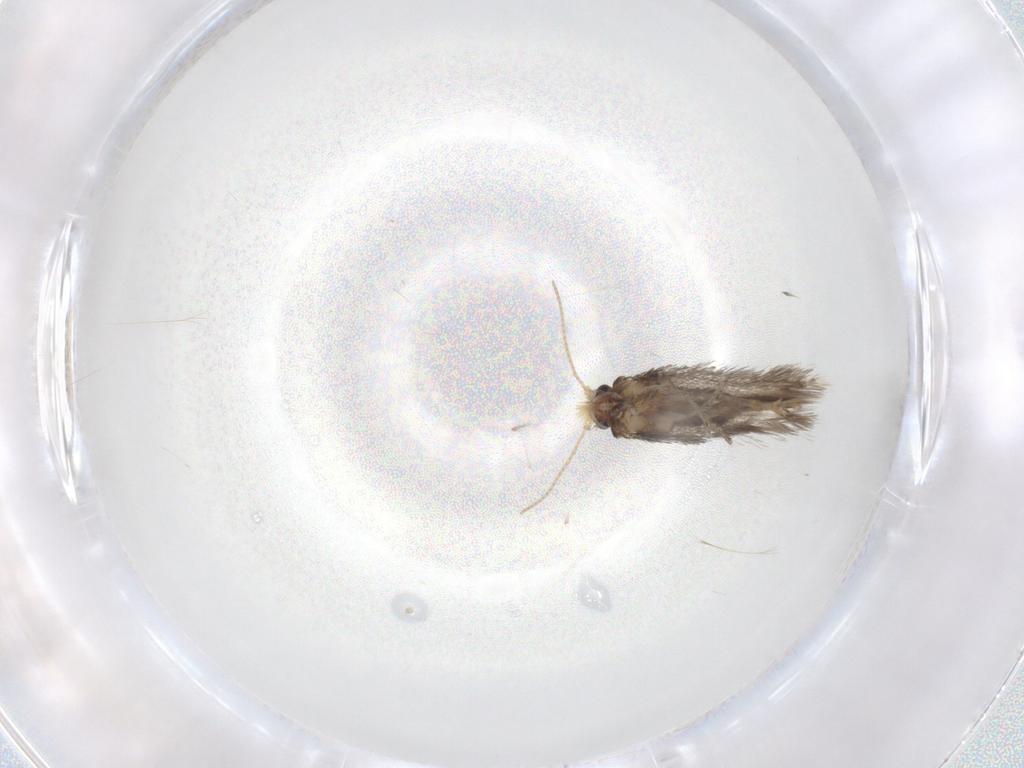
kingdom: Animalia
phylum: Arthropoda
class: Insecta
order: Lepidoptera
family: Nepticulidae
